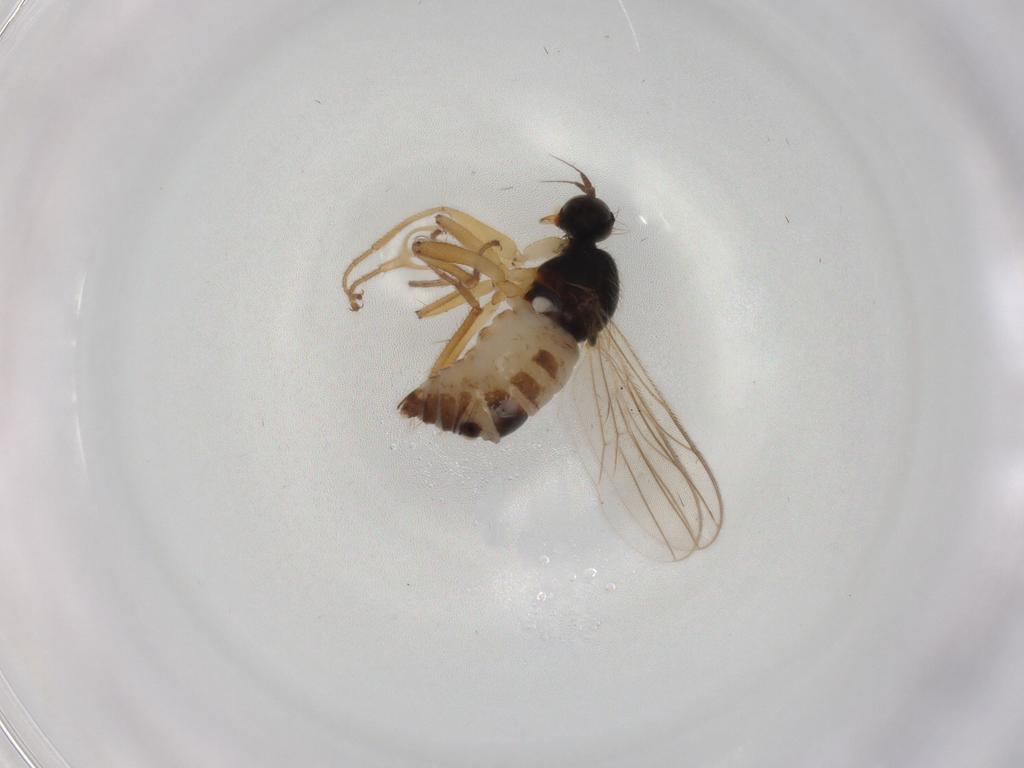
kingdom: Animalia
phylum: Arthropoda
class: Insecta
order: Diptera
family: Hybotidae
